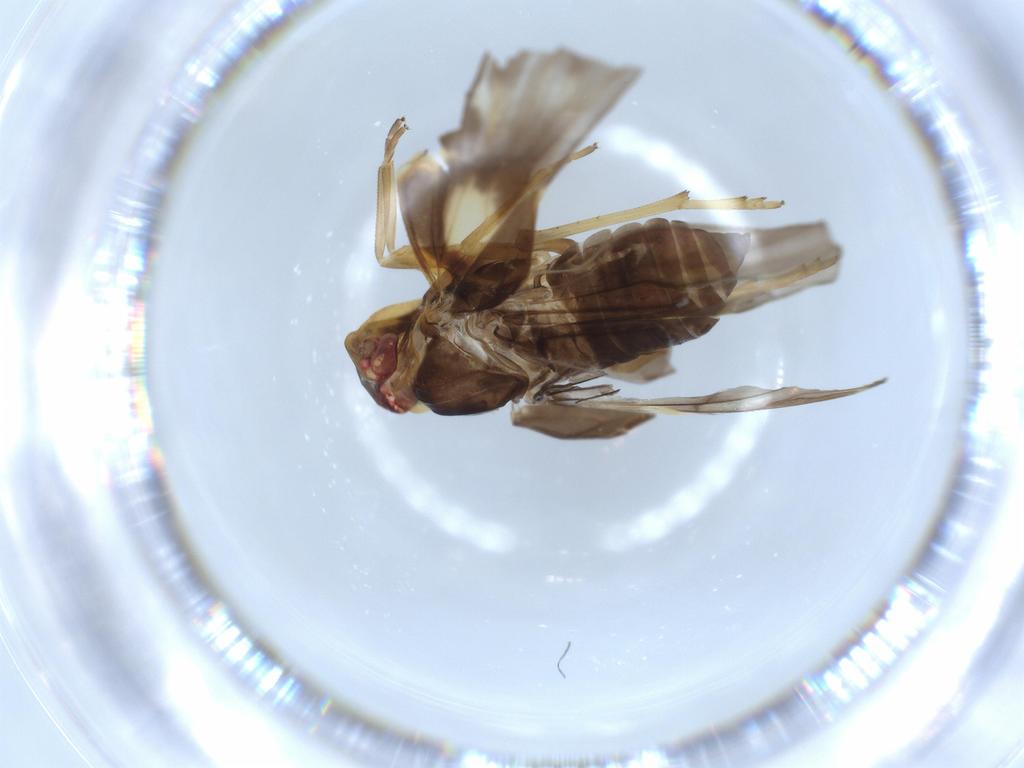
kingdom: Animalia
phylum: Arthropoda
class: Insecta
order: Hemiptera
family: Cixiidae
